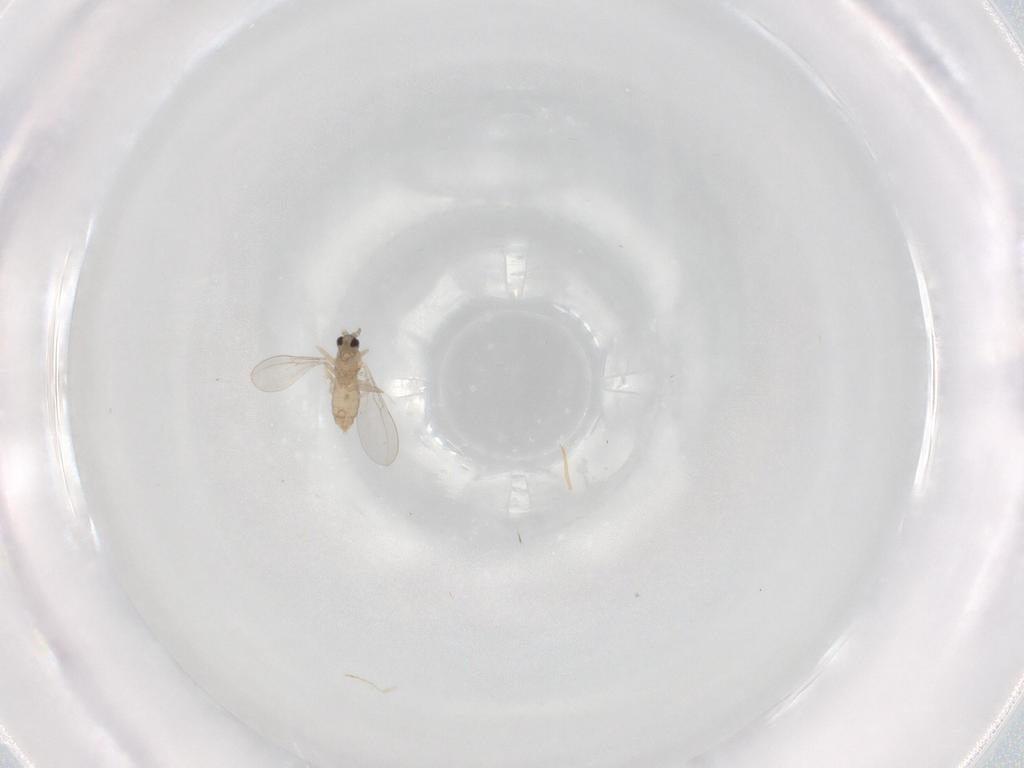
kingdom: Animalia
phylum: Arthropoda
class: Insecta
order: Diptera
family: Cecidomyiidae
